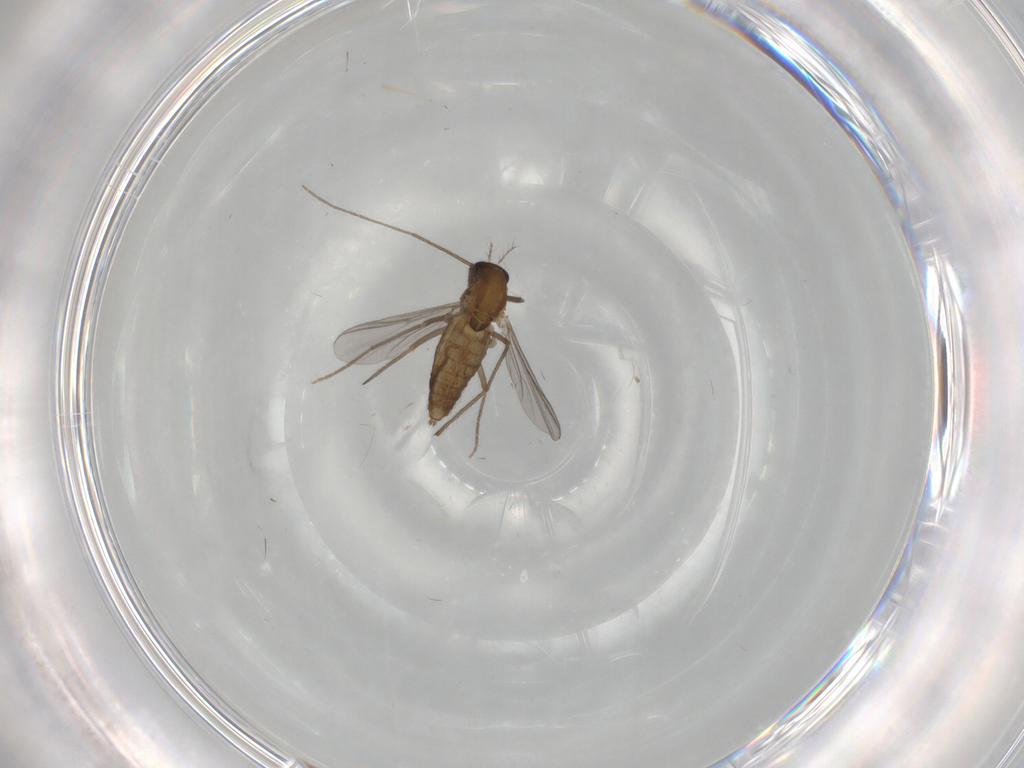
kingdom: Animalia
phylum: Arthropoda
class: Insecta
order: Diptera
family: Chironomidae
